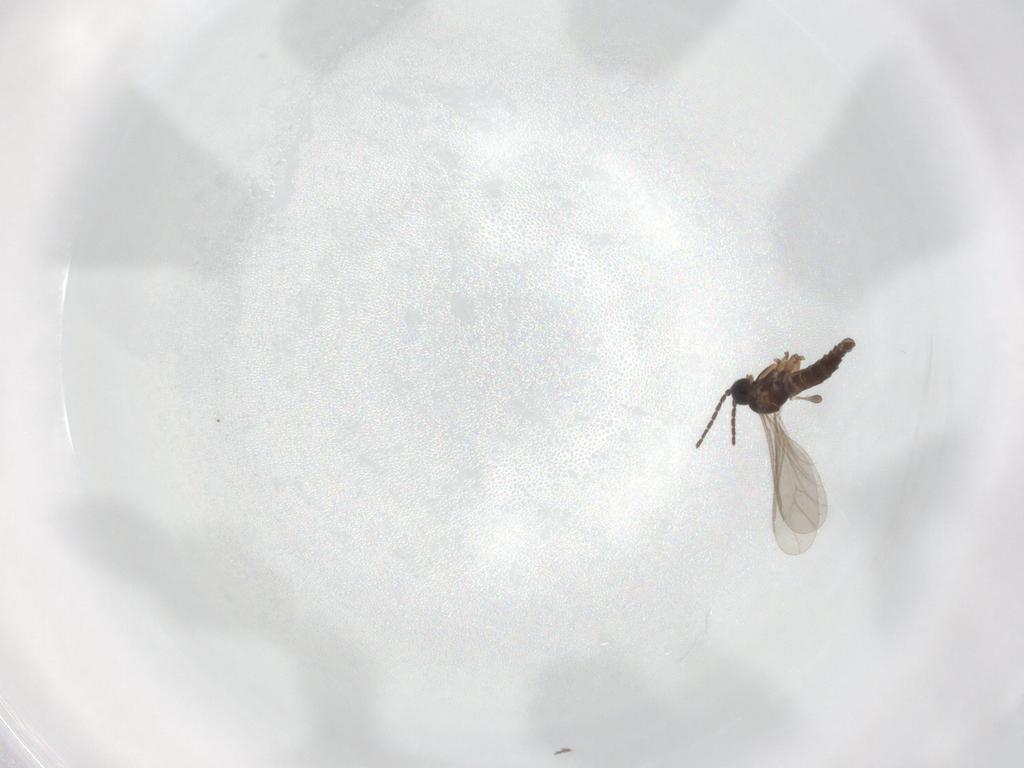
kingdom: Animalia
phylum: Arthropoda
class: Insecta
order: Diptera
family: Sciaridae
